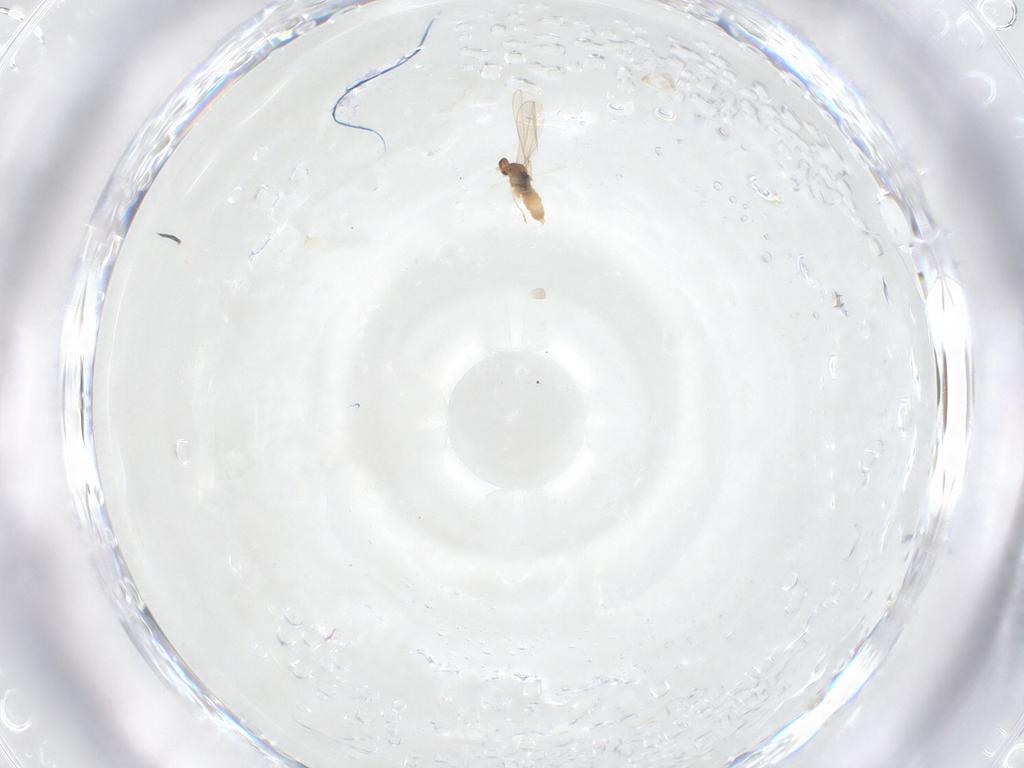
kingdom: Animalia
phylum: Arthropoda
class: Insecta
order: Diptera
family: Cecidomyiidae
